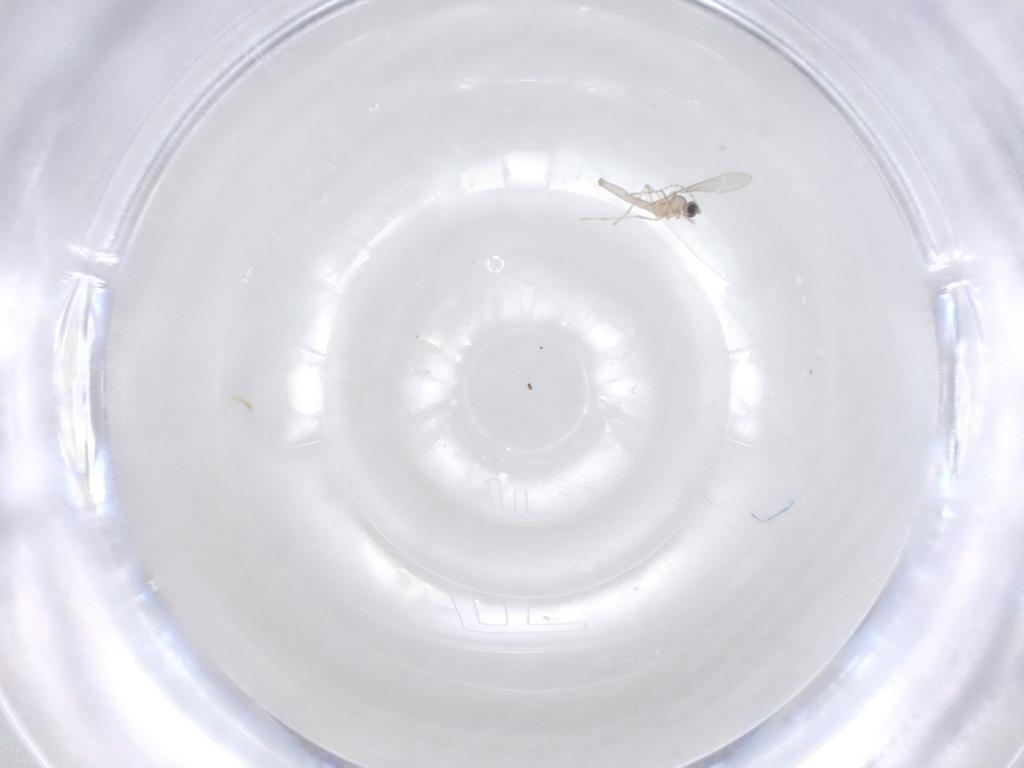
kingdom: Animalia
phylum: Arthropoda
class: Insecta
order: Diptera
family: Cecidomyiidae
